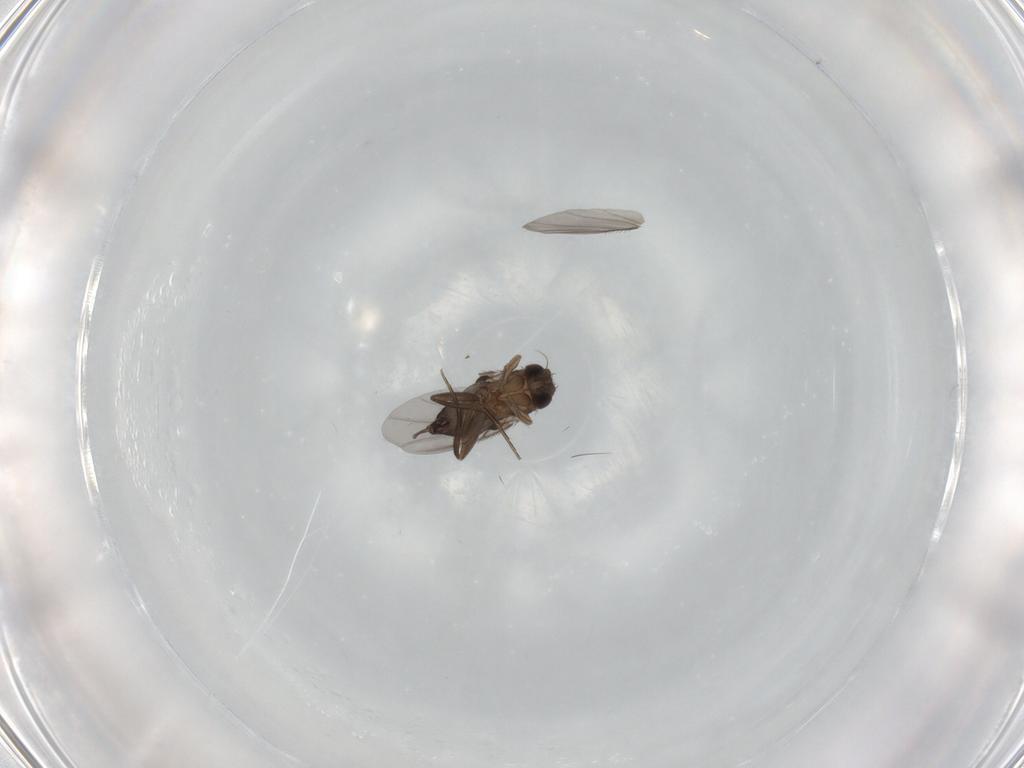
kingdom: Animalia
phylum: Arthropoda
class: Insecta
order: Diptera
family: Phoridae
